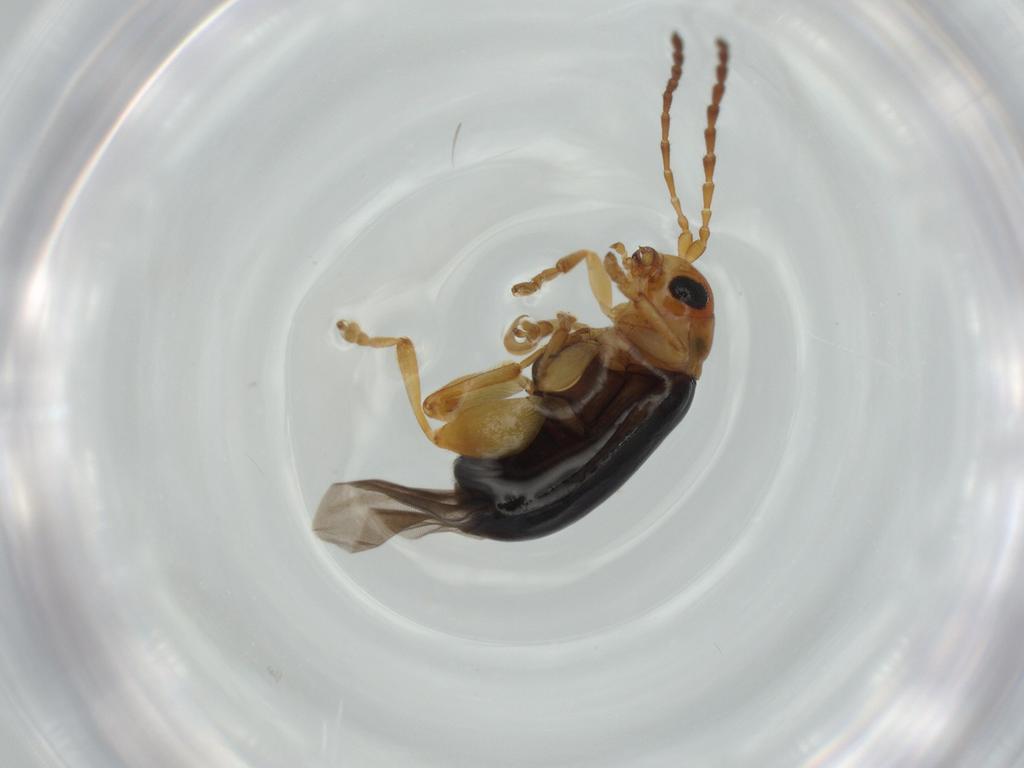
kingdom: Animalia
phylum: Arthropoda
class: Insecta
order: Coleoptera
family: Chrysomelidae
